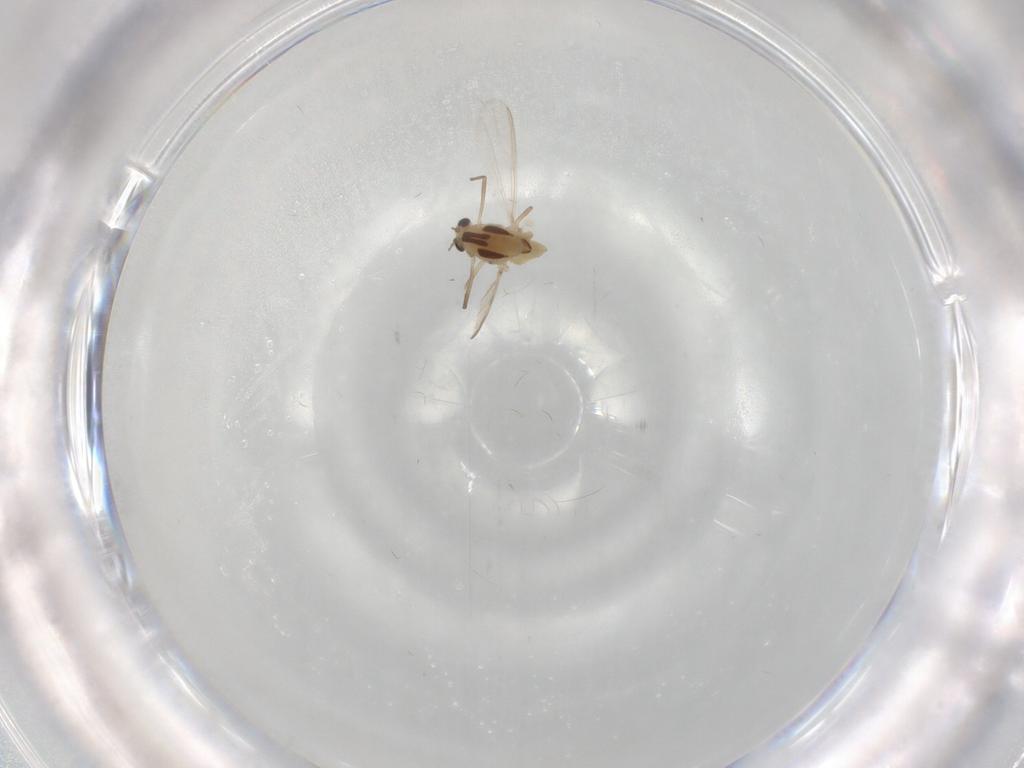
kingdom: Animalia
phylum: Arthropoda
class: Insecta
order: Diptera
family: Chironomidae
